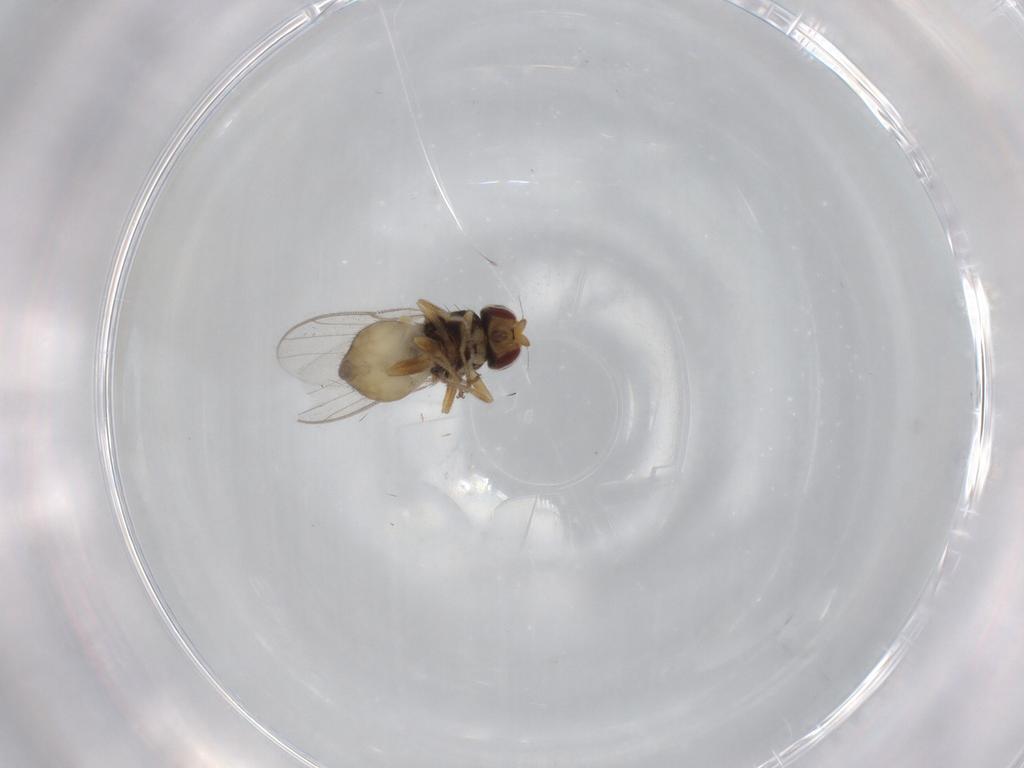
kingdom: Animalia
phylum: Arthropoda
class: Insecta
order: Diptera
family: Chloropidae
